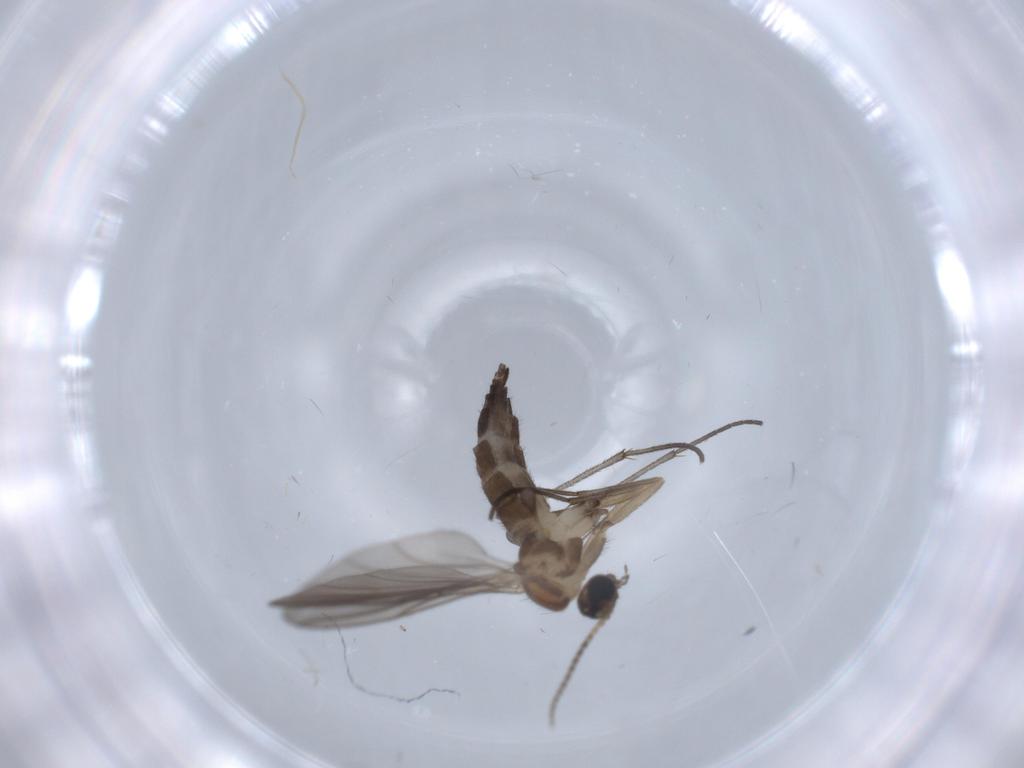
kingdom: Animalia
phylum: Arthropoda
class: Insecta
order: Diptera
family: Sciaridae
